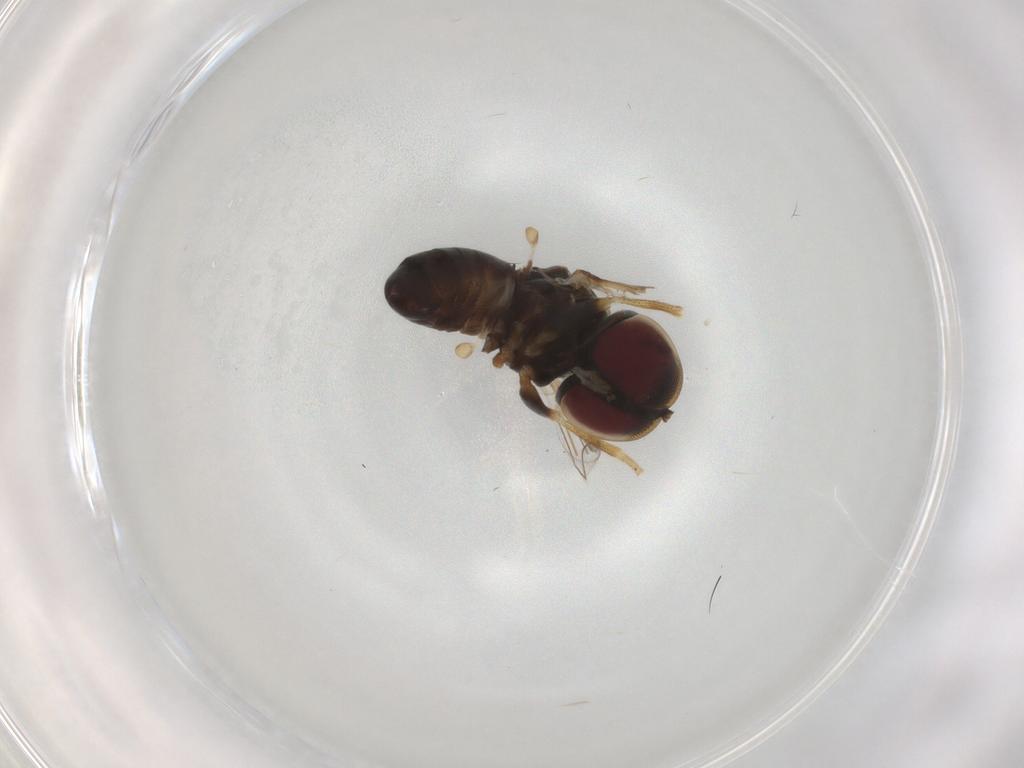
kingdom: Animalia
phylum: Arthropoda
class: Insecta
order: Diptera
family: Pipunculidae
